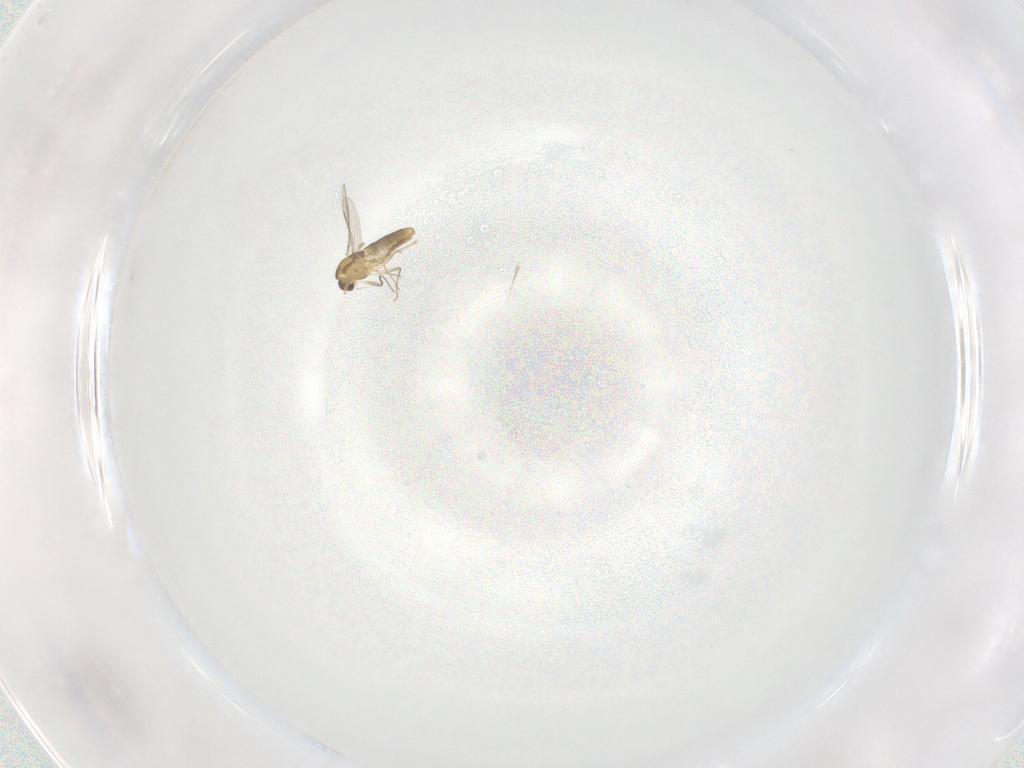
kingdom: Animalia
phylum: Arthropoda
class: Insecta
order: Diptera
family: Chironomidae
